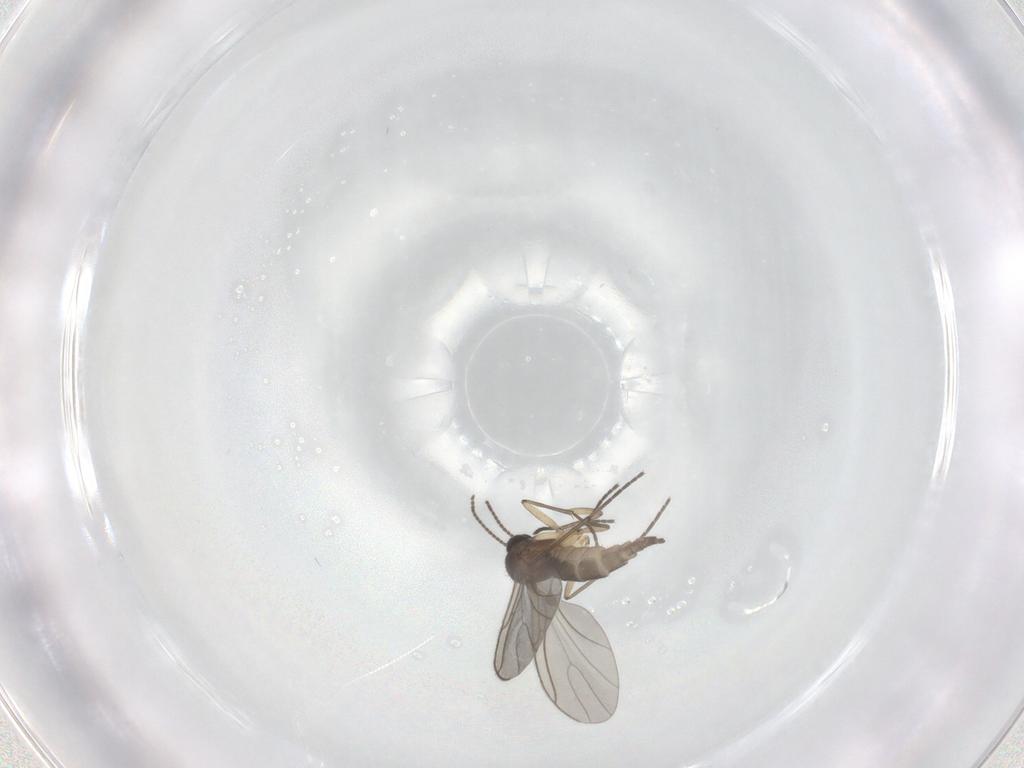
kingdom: Animalia
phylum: Arthropoda
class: Insecta
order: Diptera
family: Sciaridae
